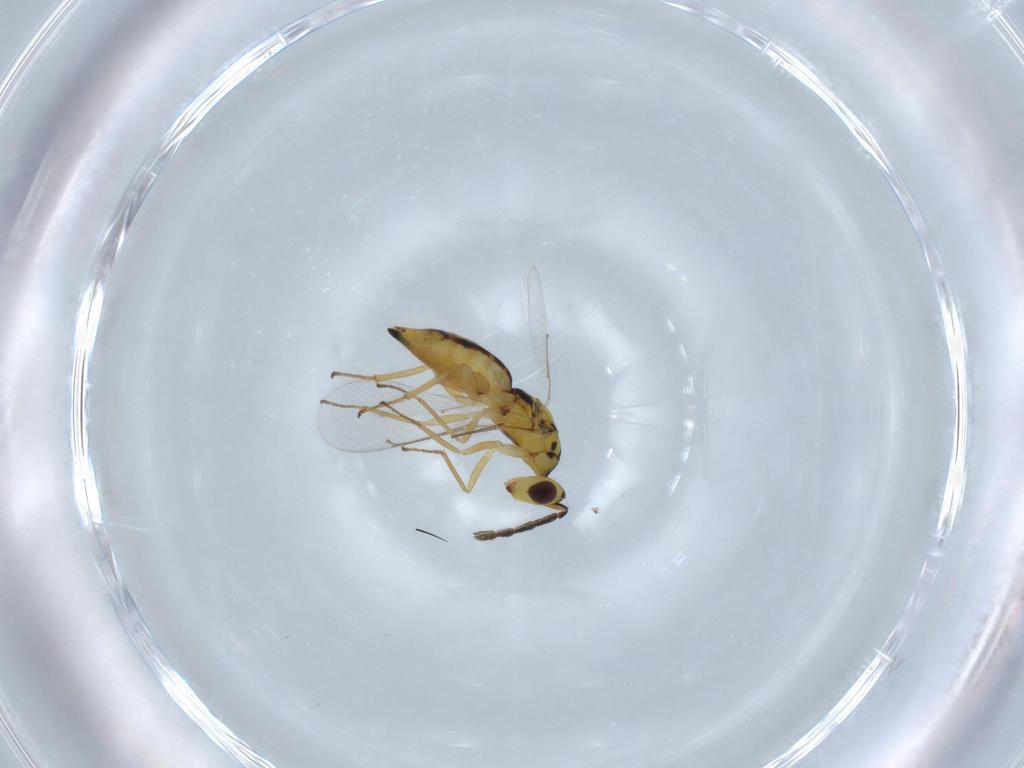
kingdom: Animalia
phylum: Arthropoda
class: Insecta
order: Hymenoptera
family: Eulophidae
